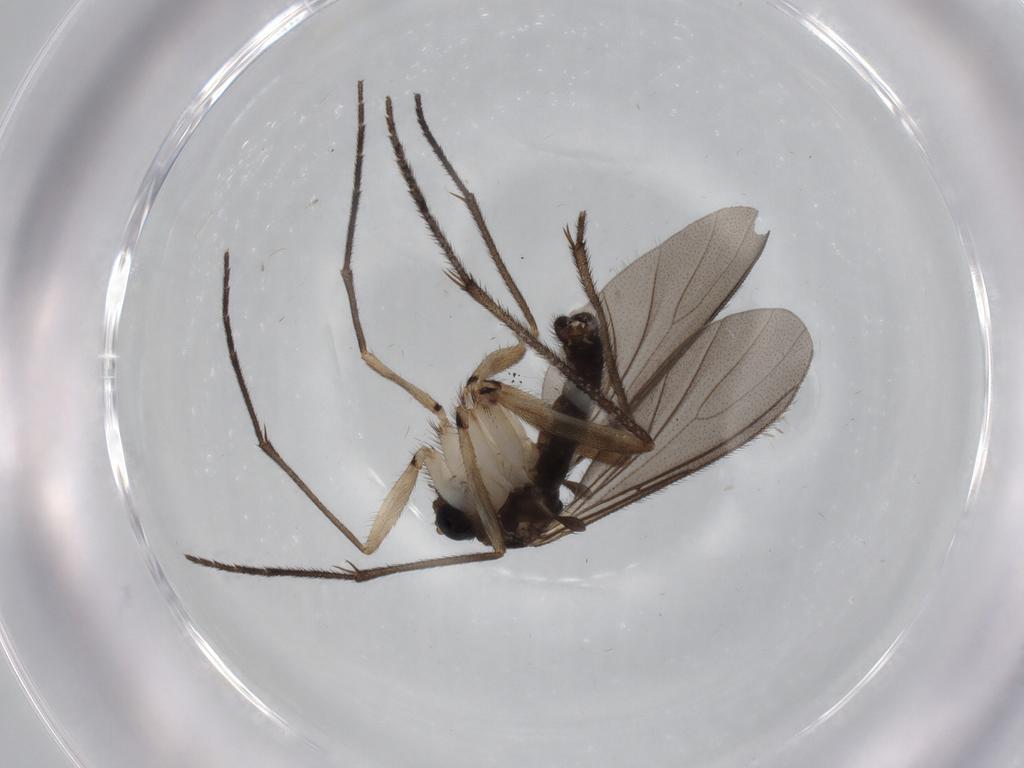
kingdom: Animalia
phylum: Arthropoda
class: Insecta
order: Diptera
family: Sciaridae
